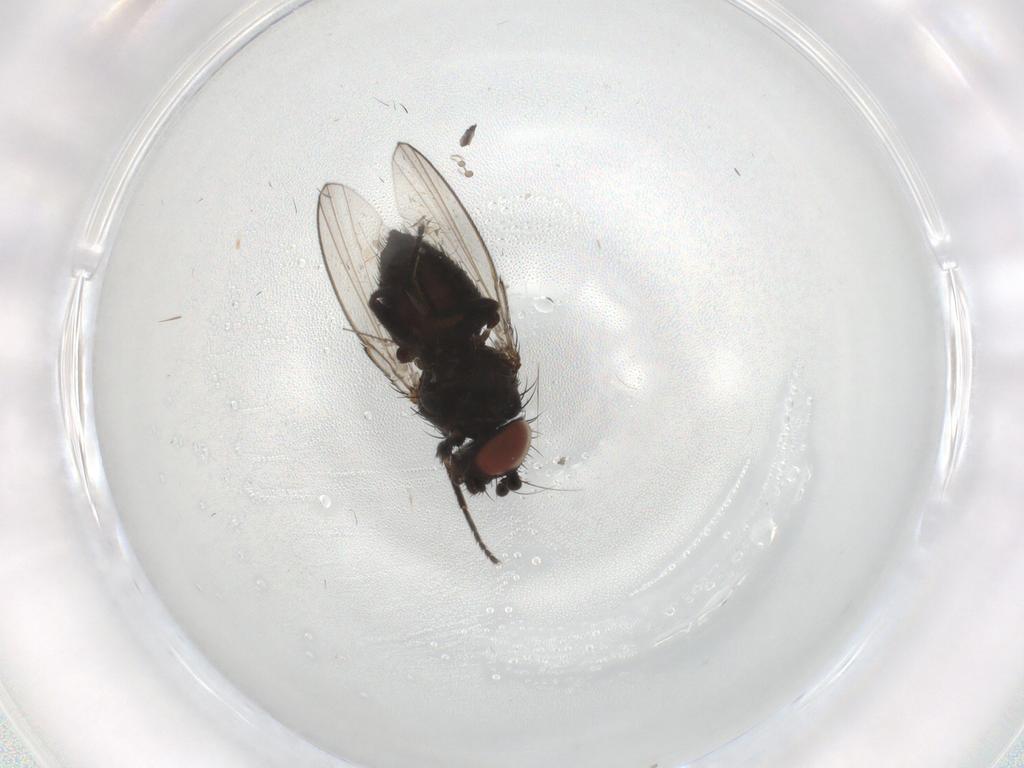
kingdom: Animalia
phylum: Arthropoda
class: Insecta
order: Diptera
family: Milichiidae
